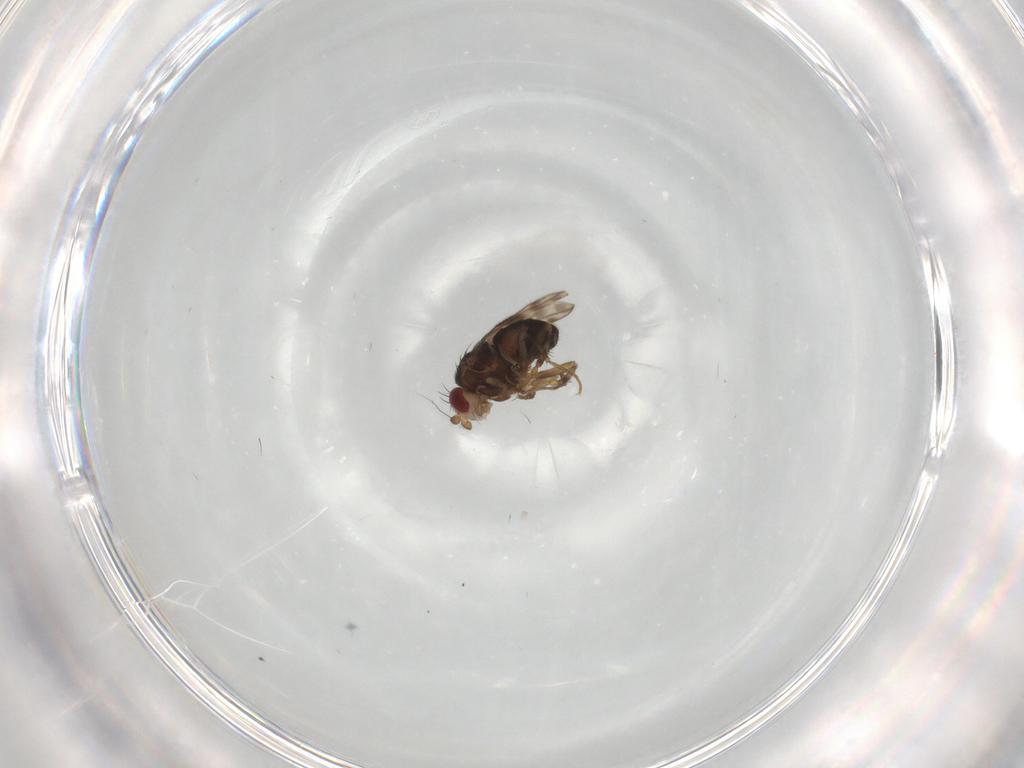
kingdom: Animalia
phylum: Arthropoda
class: Insecta
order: Diptera
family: Sphaeroceridae
